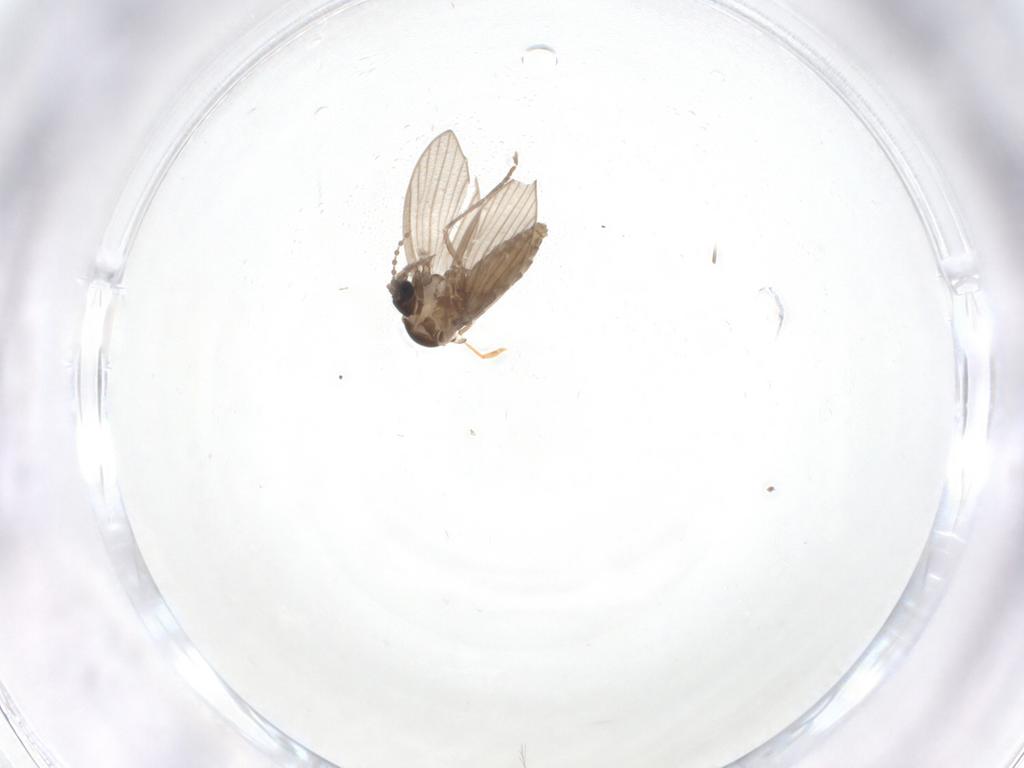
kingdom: Animalia
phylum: Arthropoda
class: Insecta
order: Diptera
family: Psychodidae
